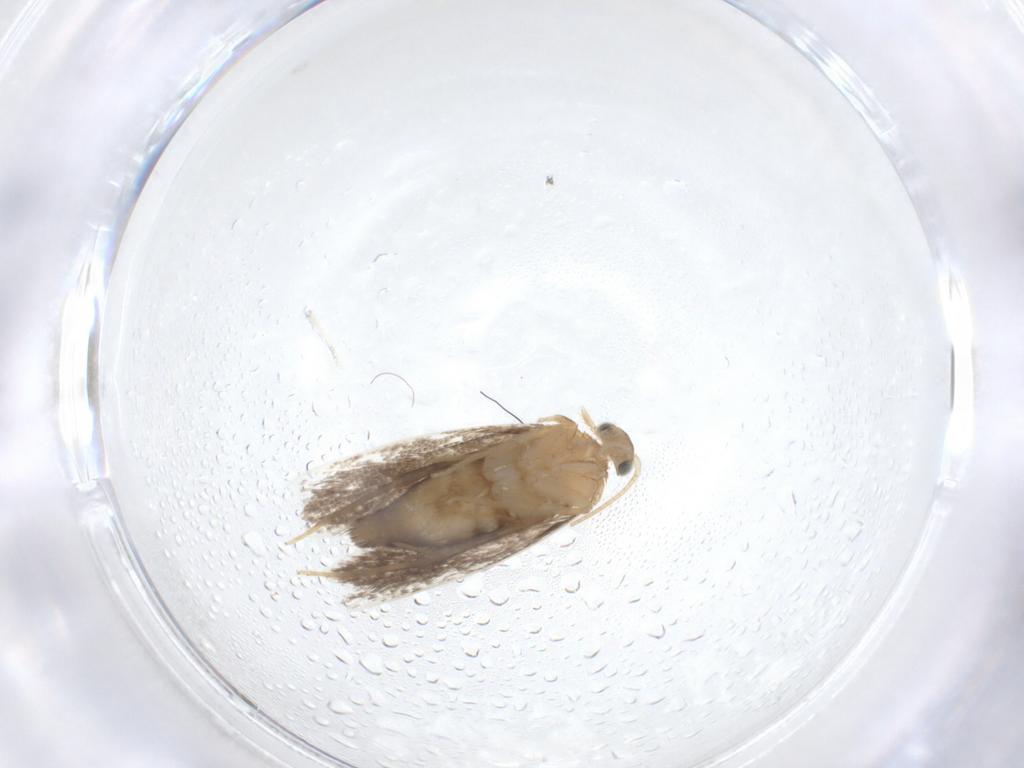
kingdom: Animalia
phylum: Arthropoda
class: Insecta
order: Lepidoptera
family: Dryadaulidae
